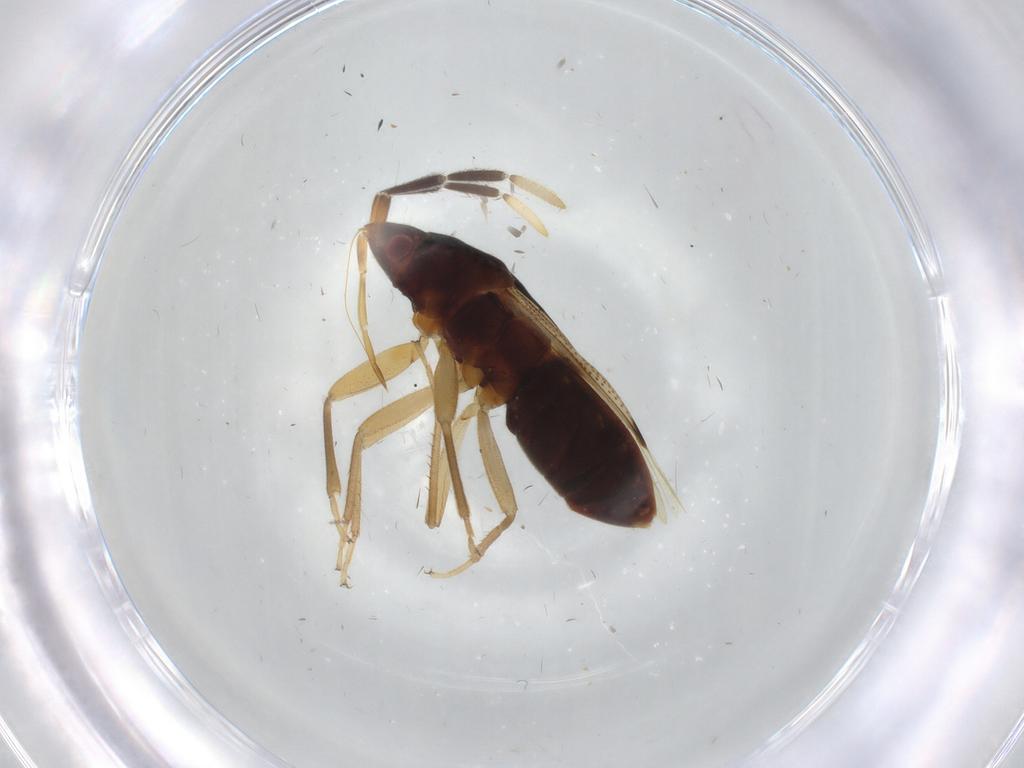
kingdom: Animalia
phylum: Arthropoda
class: Insecta
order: Hemiptera
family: Rhyparochromidae
